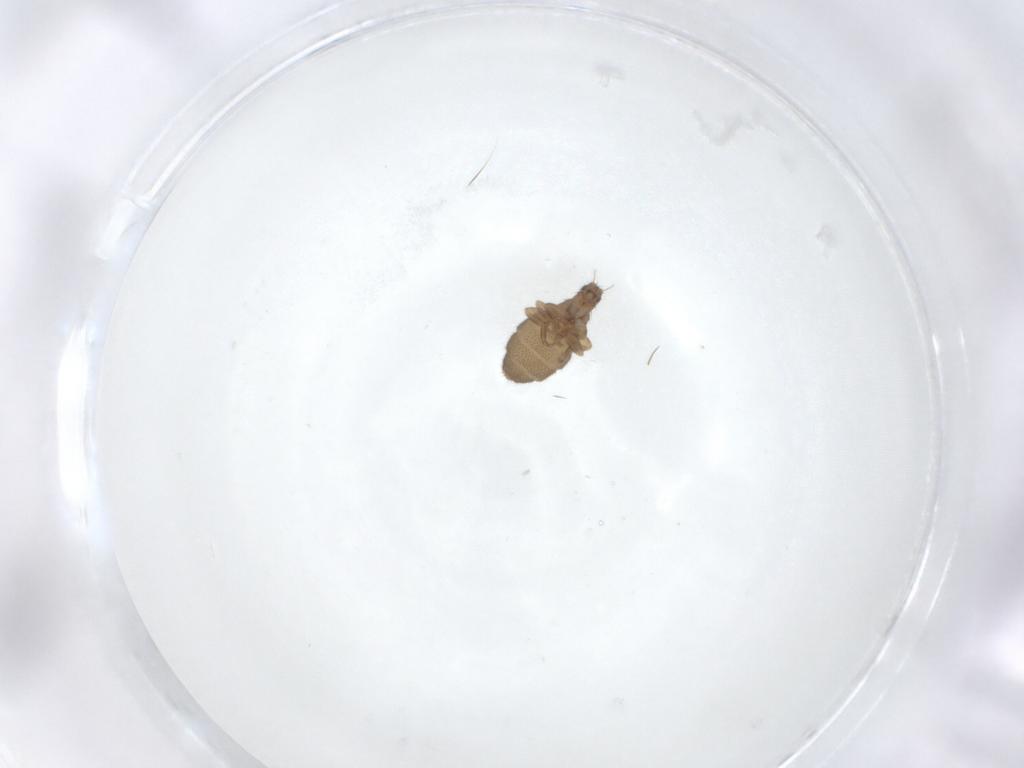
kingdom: Animalia
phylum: Arthropoda
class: Insecta
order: Diptera
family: Phoridae
